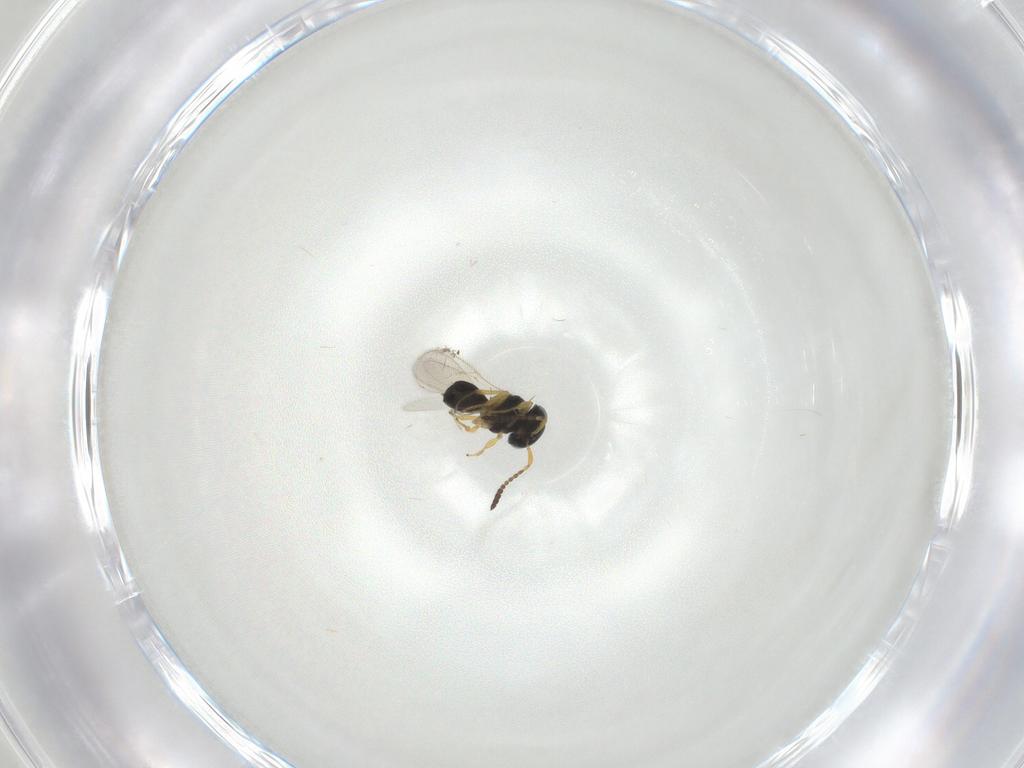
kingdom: Animalia
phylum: Arthropoda
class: Insecta
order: Hymenoptera
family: Scelionidae
